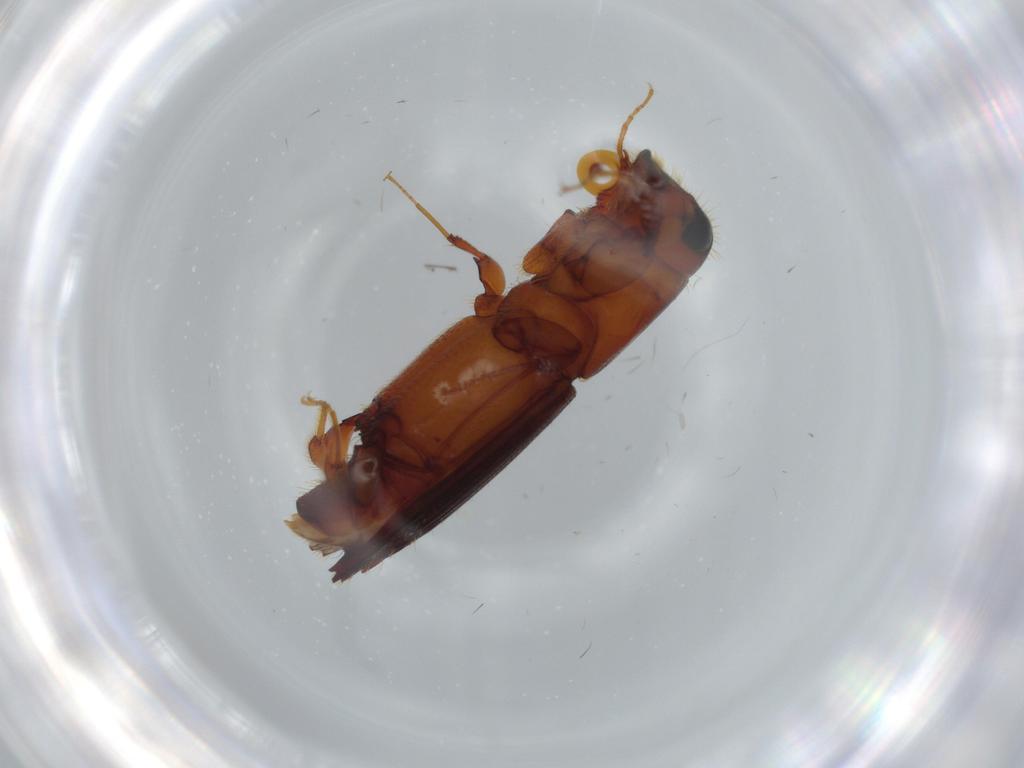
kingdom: Animalia
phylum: Arthropoda
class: Insecta
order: Coleoptera
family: Curculionidae
